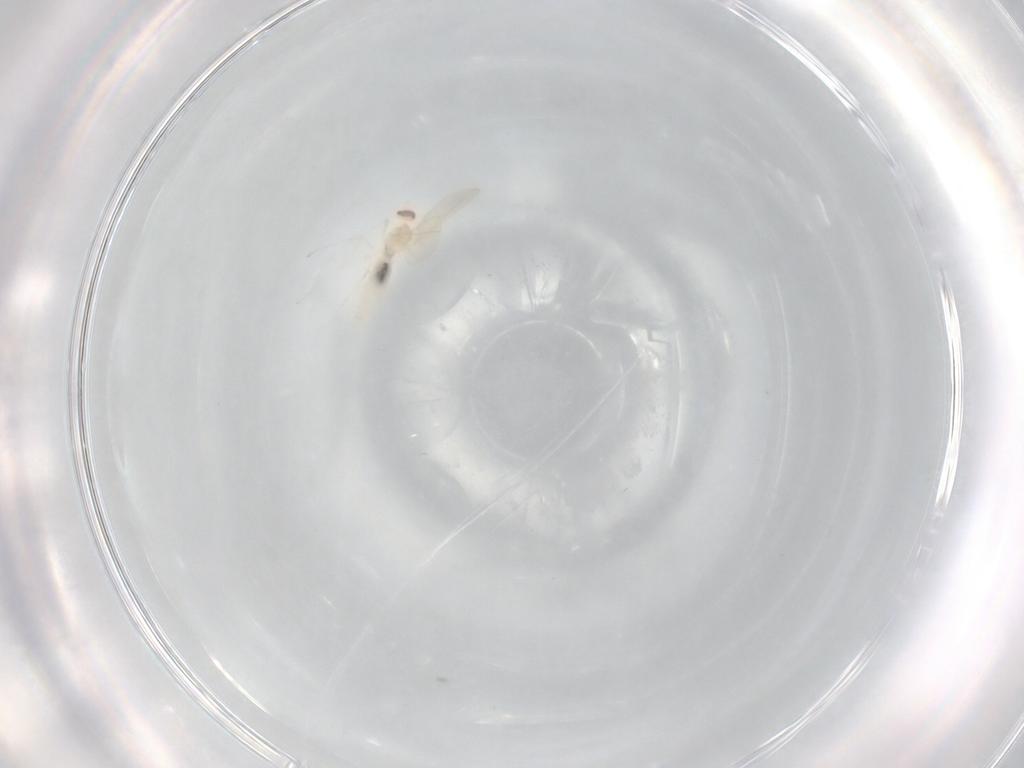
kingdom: Animalia
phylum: Arthropoda
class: Insecta
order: Diptera
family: Cecidomyiidae
